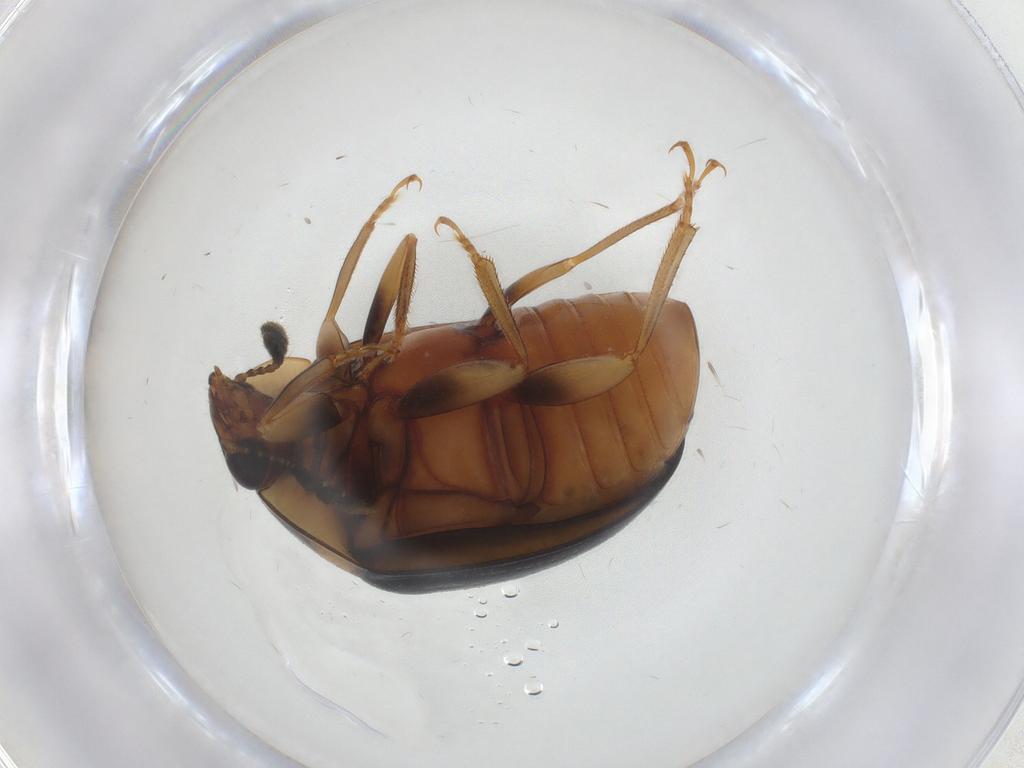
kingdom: Animalia
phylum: Arthropoda
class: Insecta
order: Coleoptera
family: Nitidulidae
